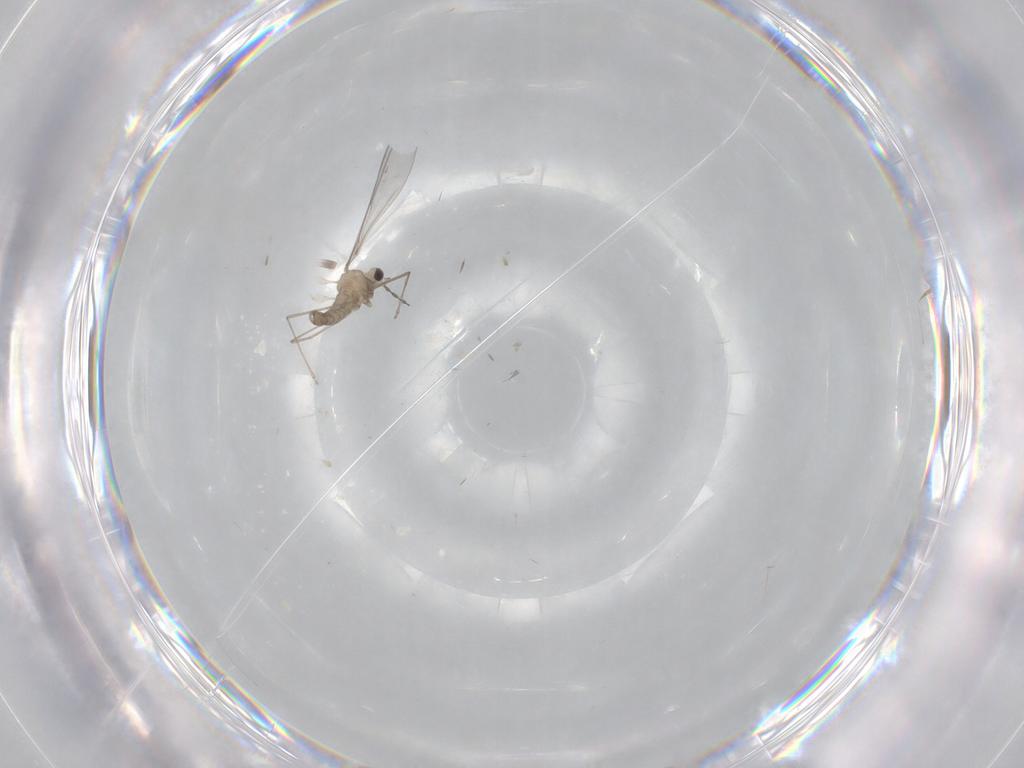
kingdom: Animalia
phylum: Arthropoda
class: Insecta
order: Diptera
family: Cecidomyiidae
